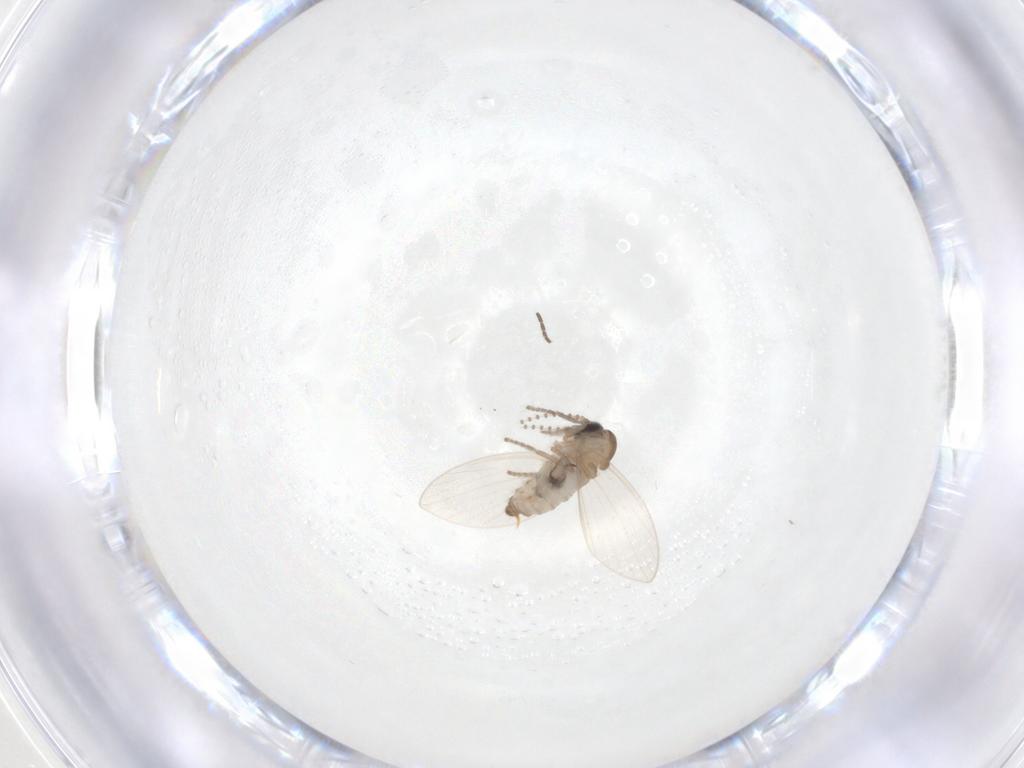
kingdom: Animalia
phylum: Arthropoda
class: Insecta
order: Diptera
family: Psychodidae
